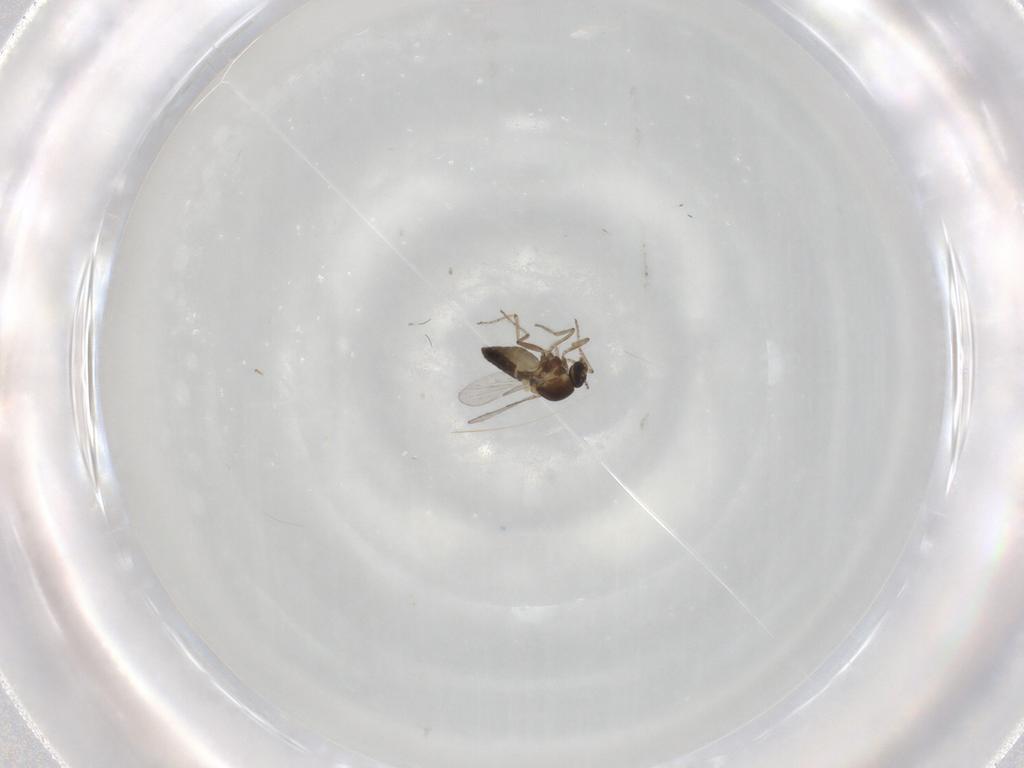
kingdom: Animalia
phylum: Arthropoda
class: Insecta
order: Diptera
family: Ceratopogonidae
